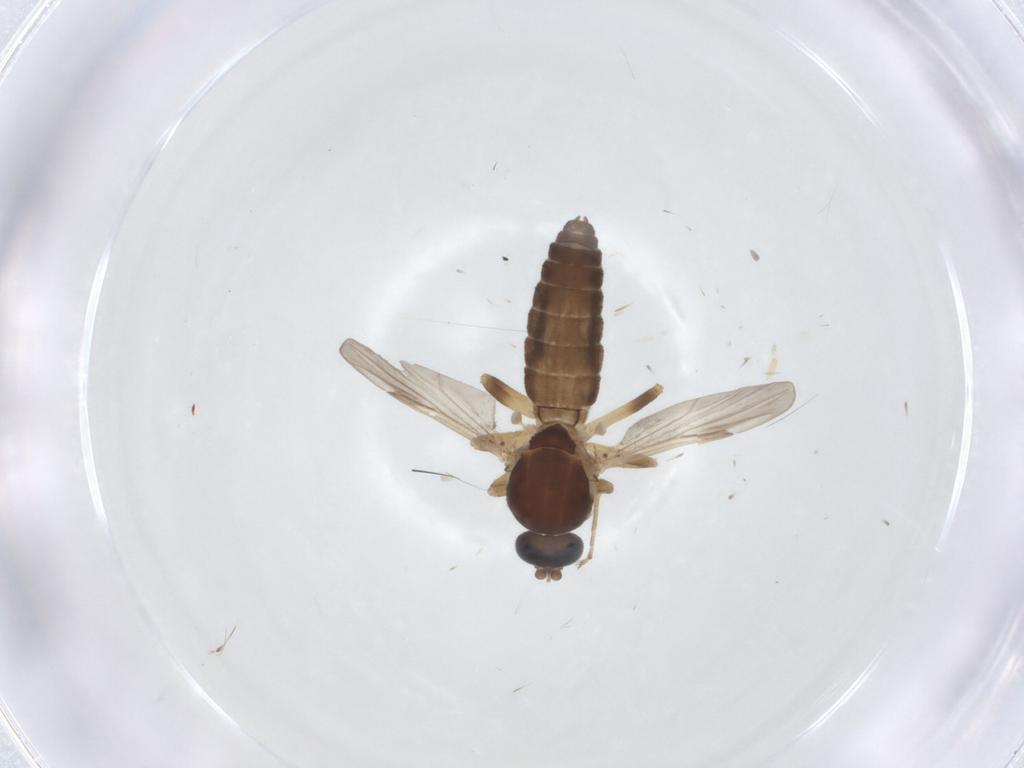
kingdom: Animalia
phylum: Arthropoda
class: Insecta
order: Diptera
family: Ceratopogonidae
